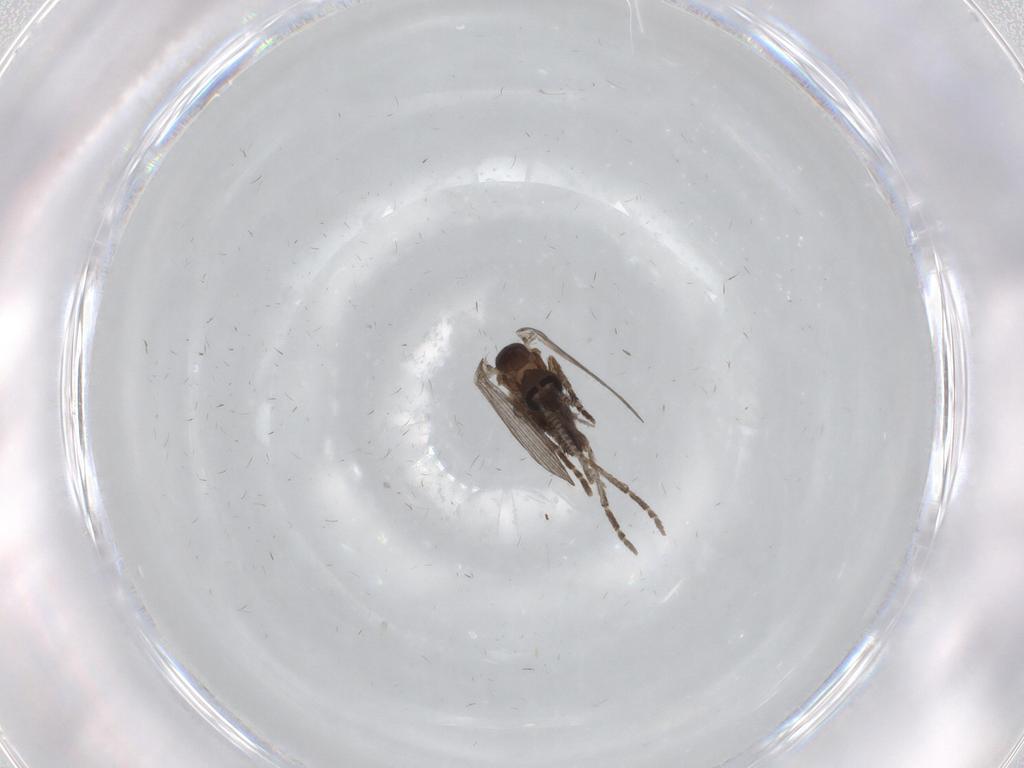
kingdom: Animalia
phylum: Arthropoda
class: Insecta
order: Diptera
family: Psychodidae
